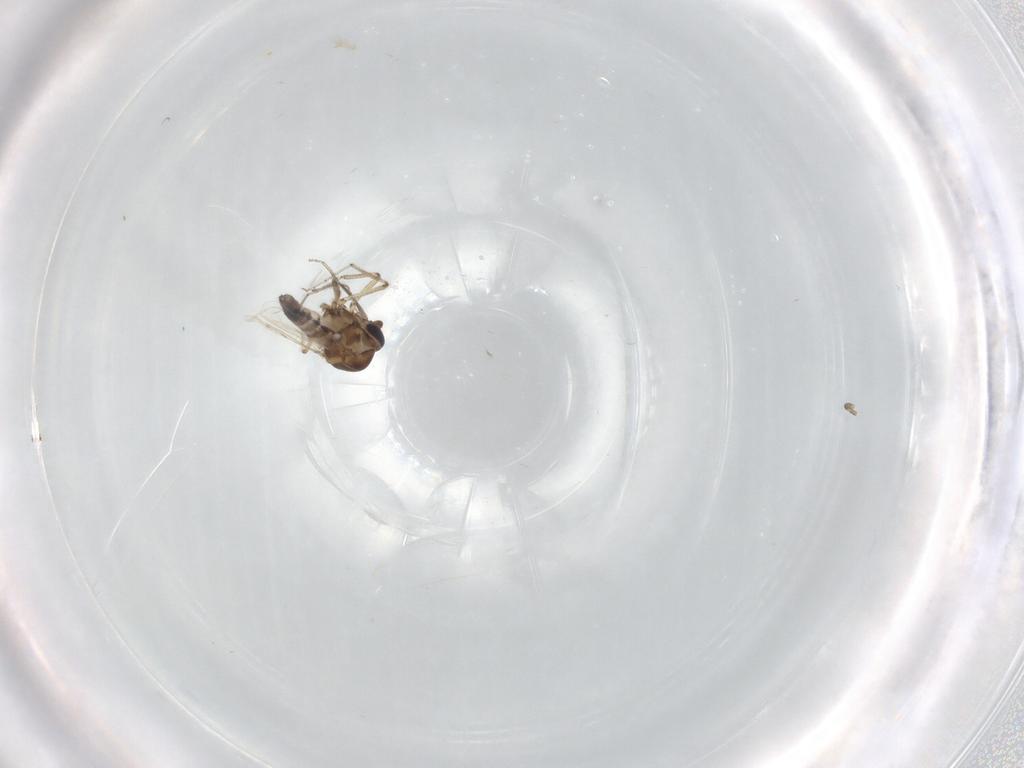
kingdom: Animalia
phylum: Arthropoda
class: Insecta
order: Diptera
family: Ceratopogonidae
